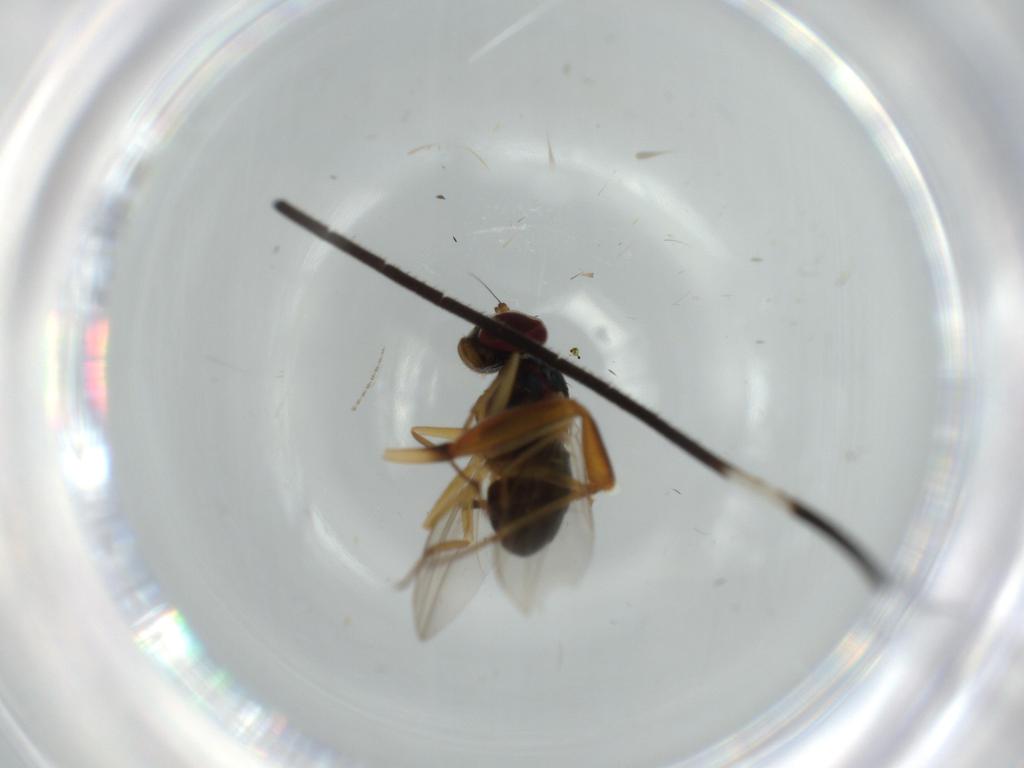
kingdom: Animalia
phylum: Arthropoda
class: Insecta
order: Diptera
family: Dolichopodidae
